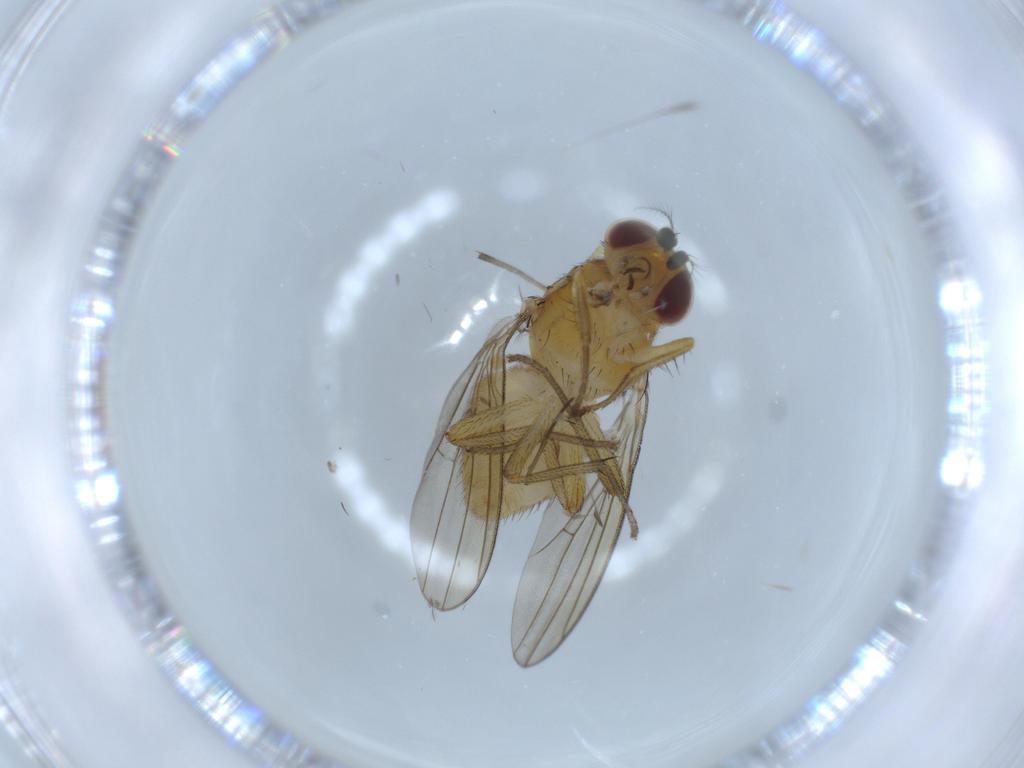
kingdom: Animalia
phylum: Arthropoda
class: Insecta
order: Diptera
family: Lauxaniidae
